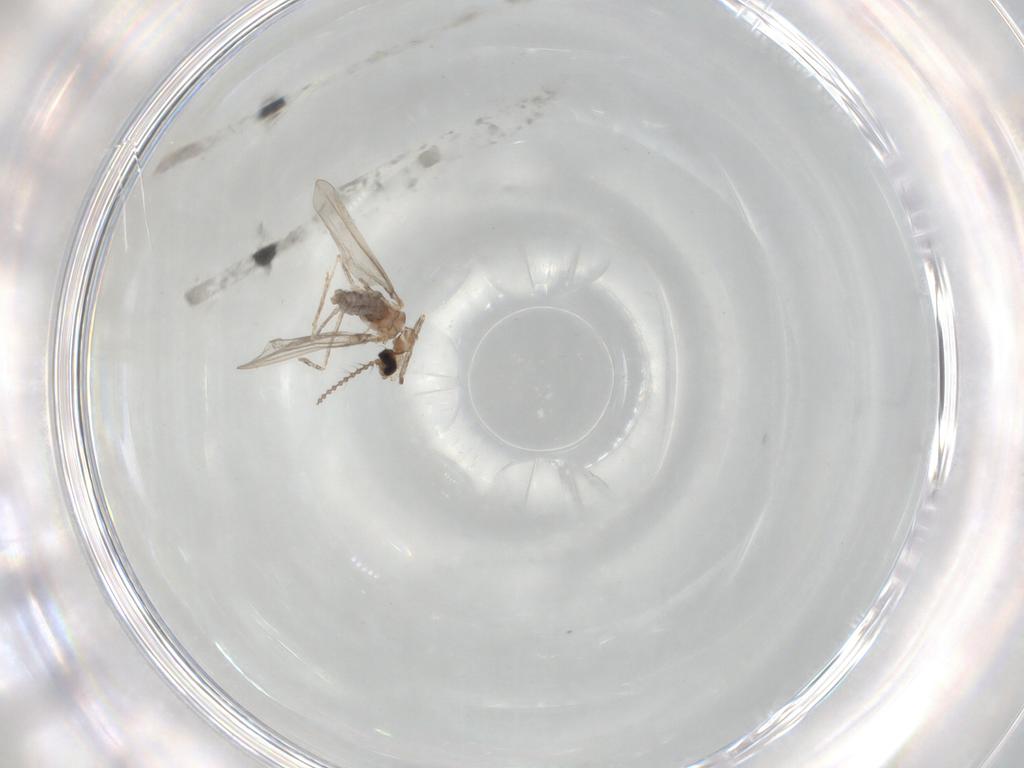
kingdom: Animalia
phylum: Arthropoda
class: Insecta
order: Diptera
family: Cecidomyiidae
